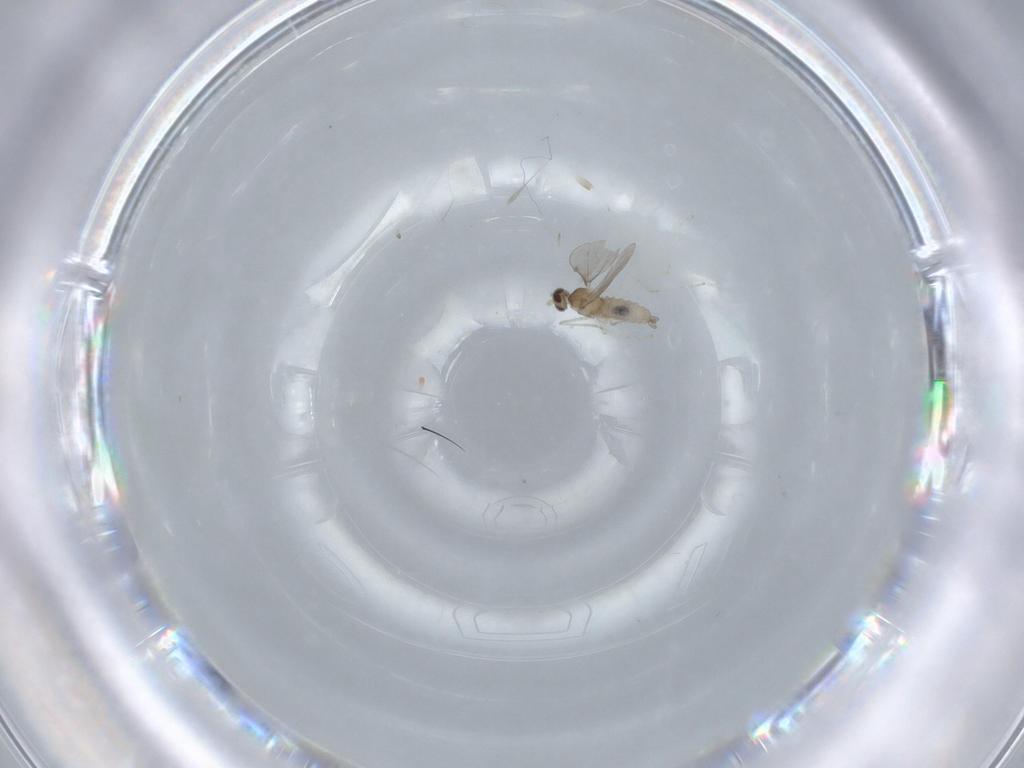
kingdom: Animalia
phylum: Arthropoda
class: Insecta
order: Diptera
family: Cecidomyiidae
